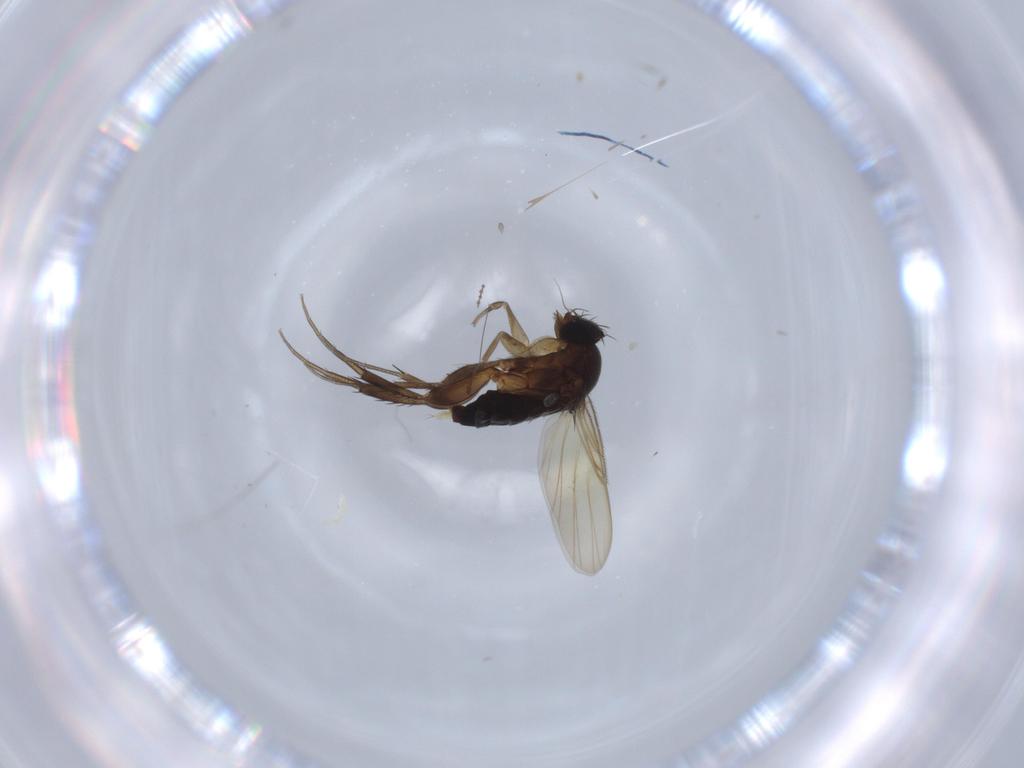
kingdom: Animalia
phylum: Arthropoda
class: Insecta
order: Diptera
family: Phoridae
